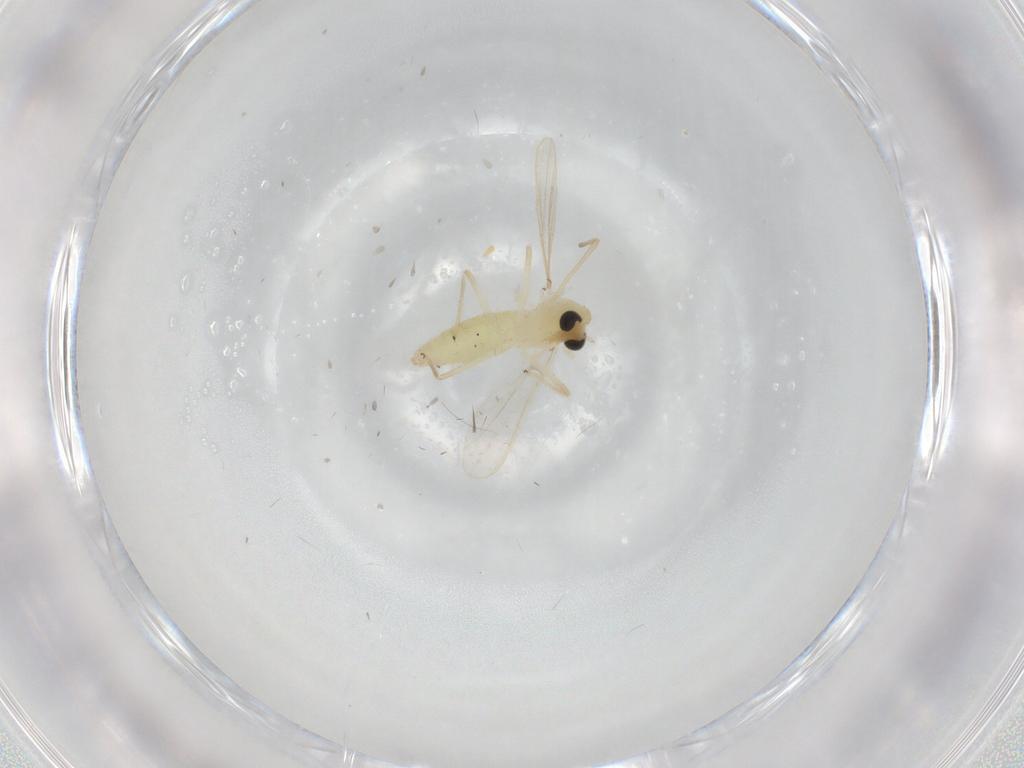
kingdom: Animalia
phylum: Arthropoda
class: Insecta
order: Diptera
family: Chironomidae
